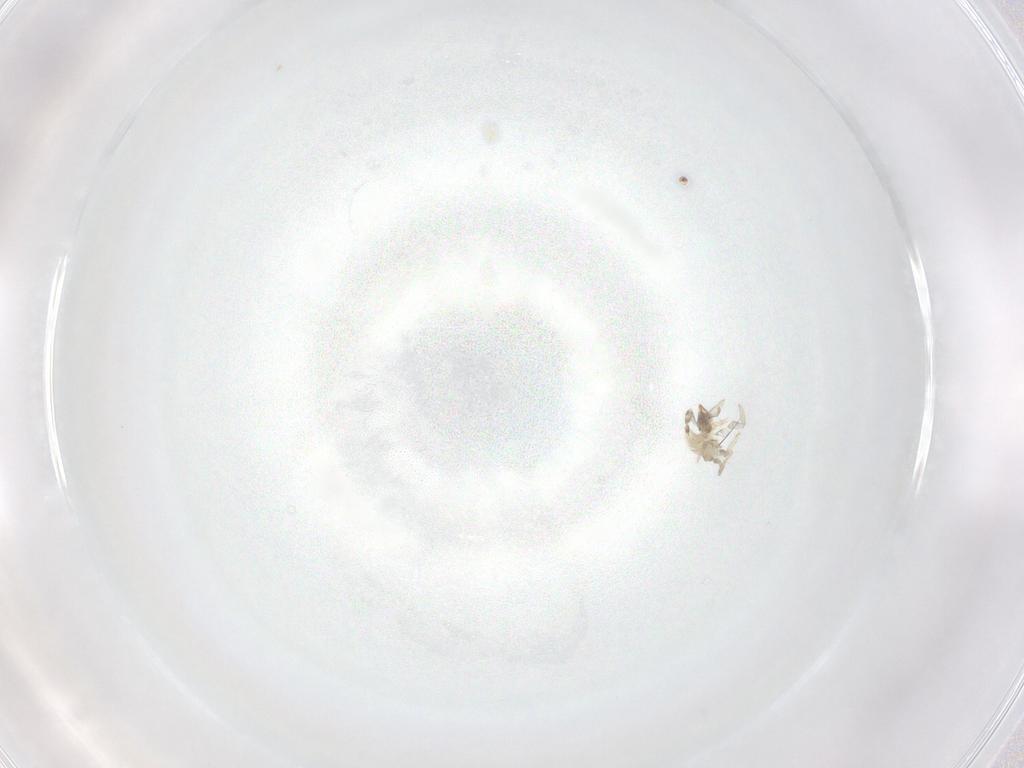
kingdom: Animalia
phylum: Arthropoda
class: Insecta
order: Neuroptera
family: Coniopterygidae
